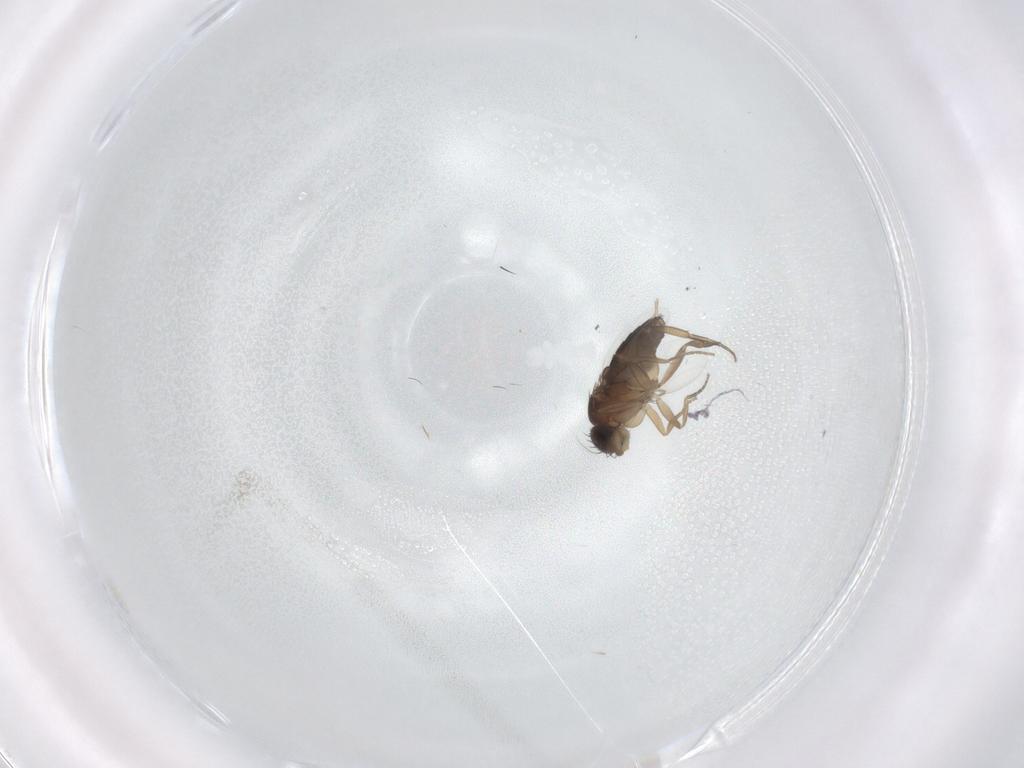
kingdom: Animalia
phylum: Arthropoda
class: Insecta
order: Diptera
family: Phoridae
